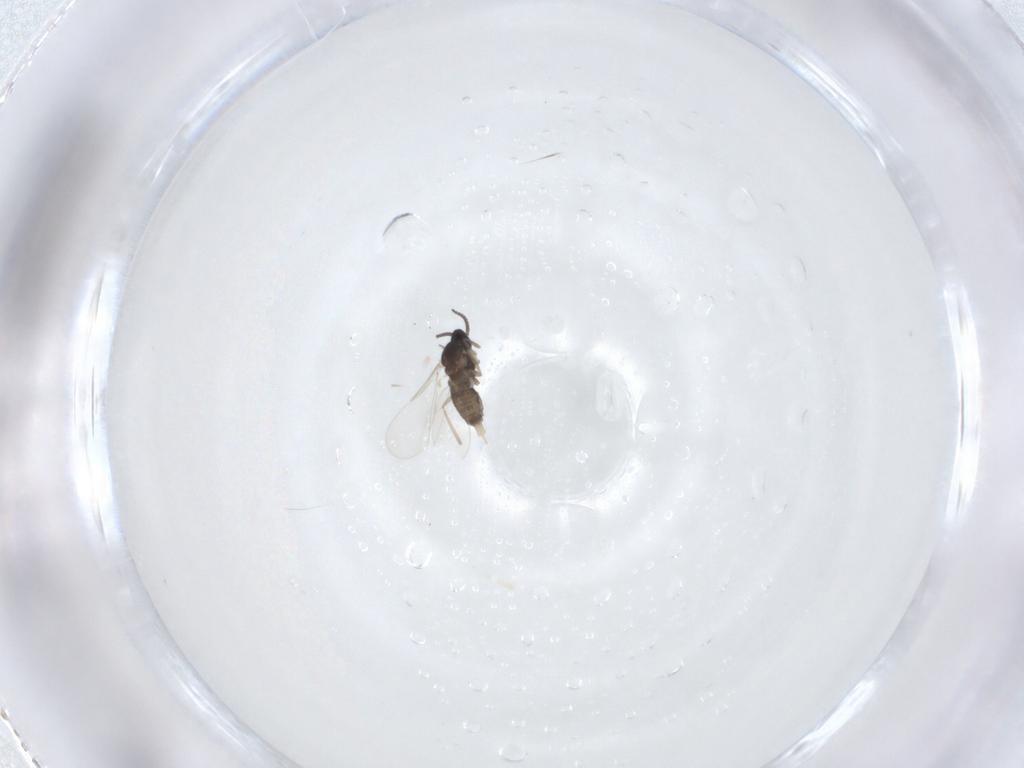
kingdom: Animalia
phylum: Arthropoda
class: Insecta
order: Diptera
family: Cecidomyiidae
